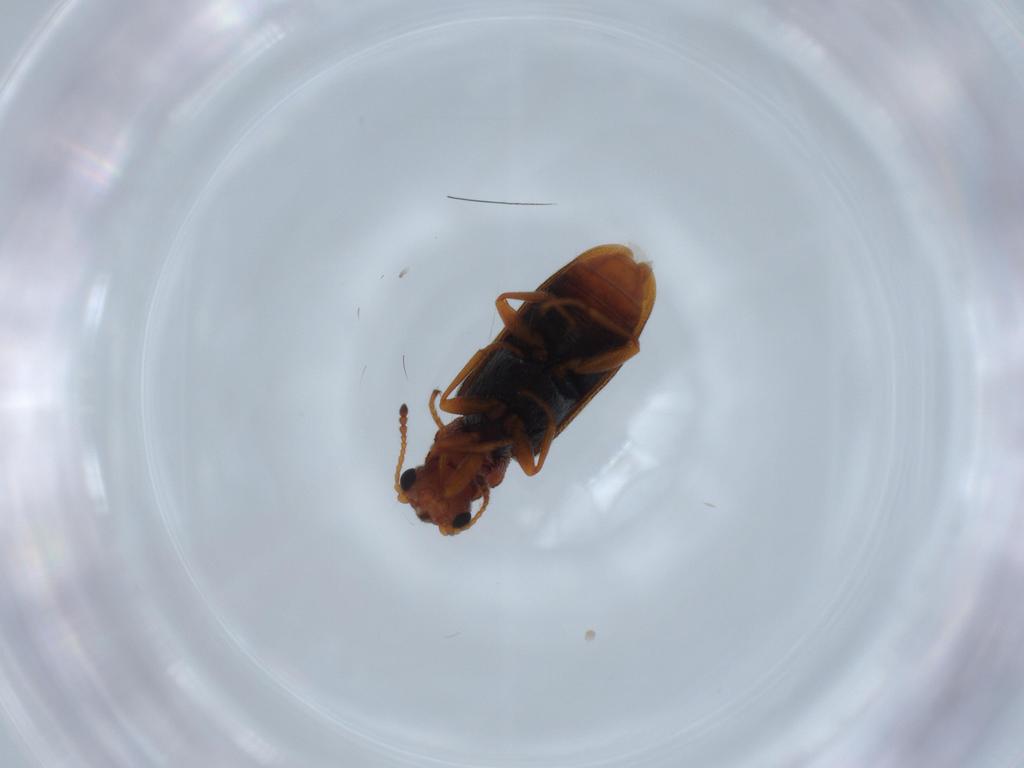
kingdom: Animalia
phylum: Arthropoda
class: Insecta
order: Coleoptera
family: Dasytidae
